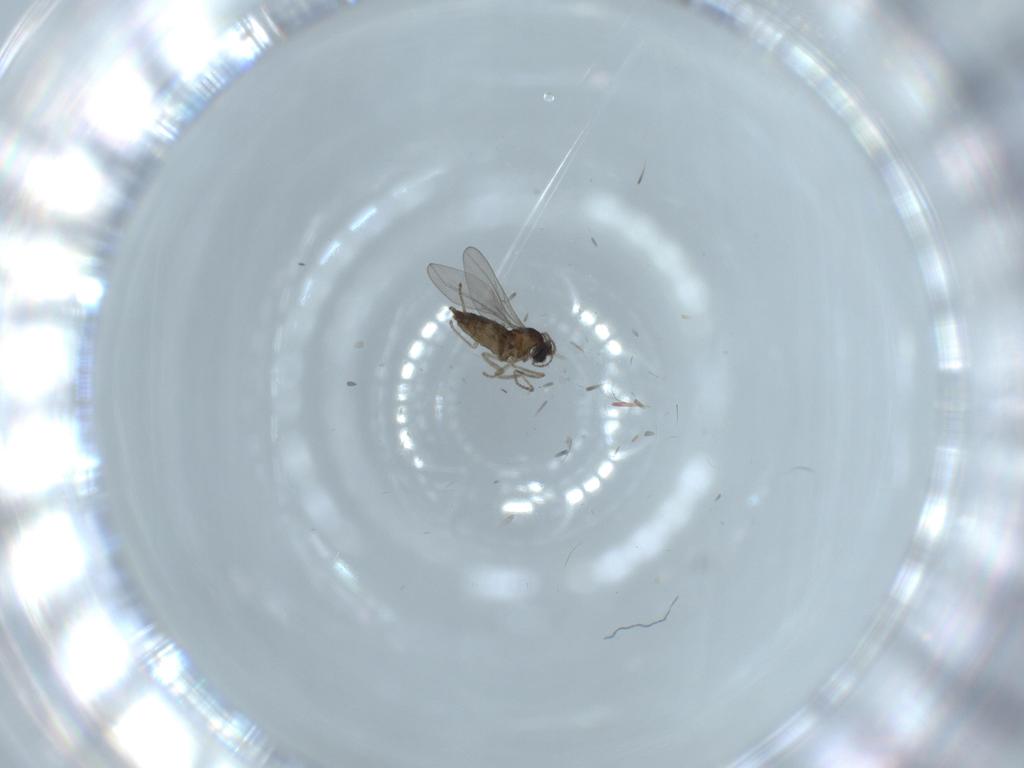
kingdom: Animalia
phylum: Arthropoda
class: Insecta
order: Diptera
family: Cecidomyiidae
